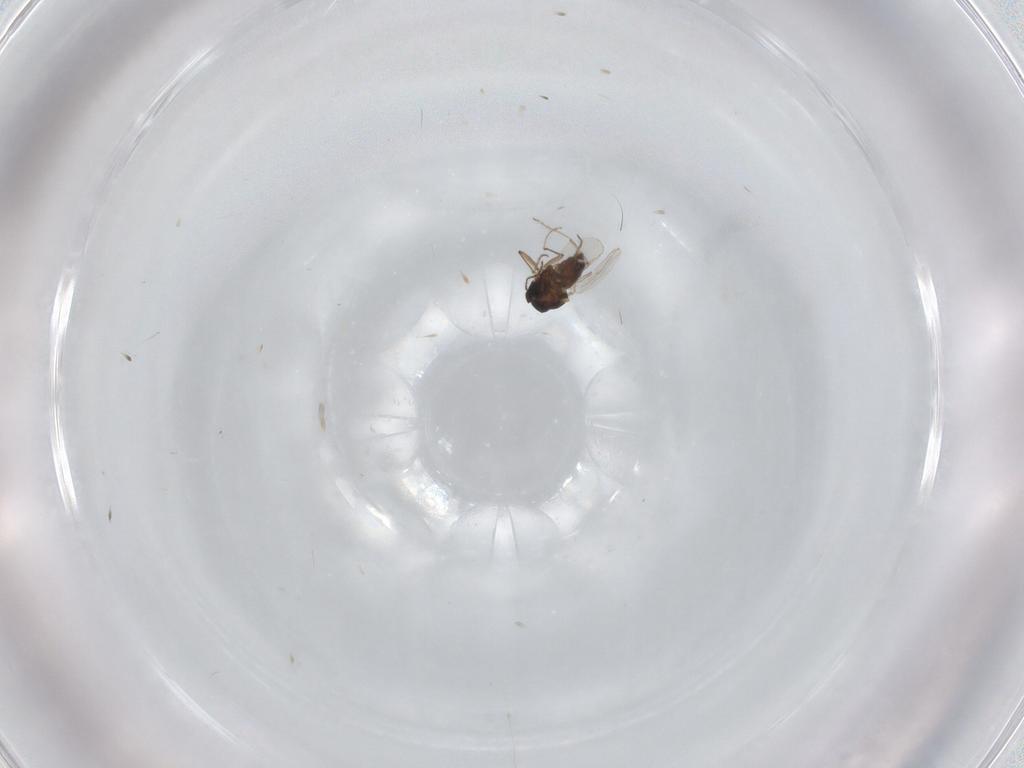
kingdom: Animalia
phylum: Arthropoda
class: Insecta
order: Diptera
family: Ceratopogonidae
